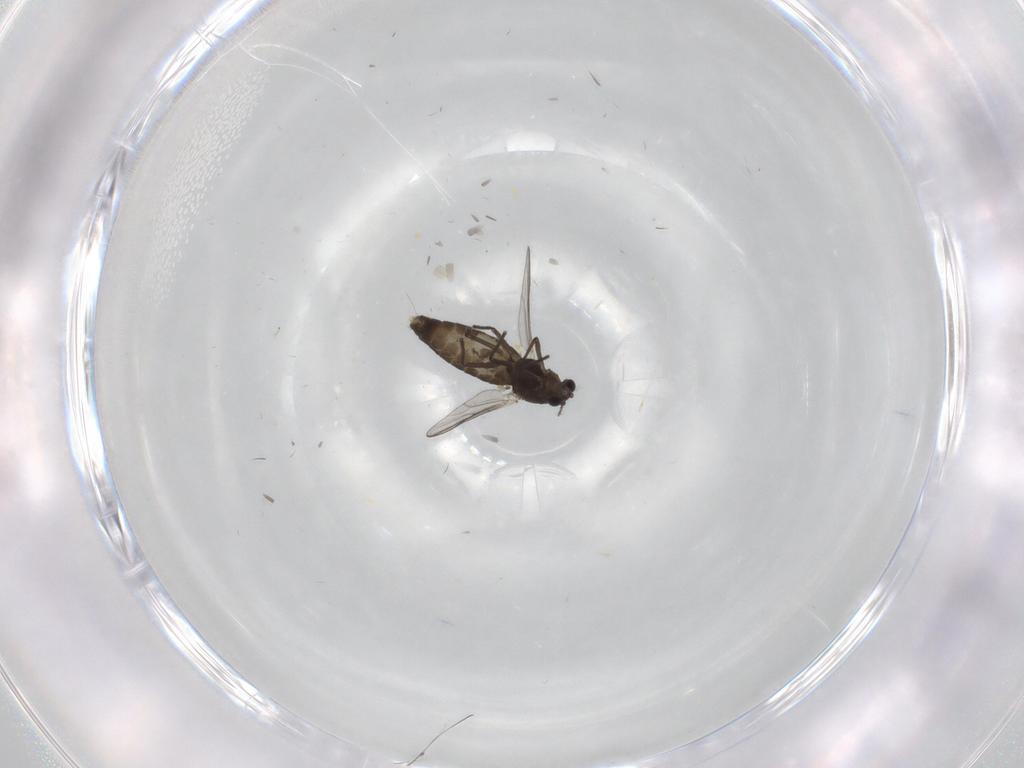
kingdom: Animalia
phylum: Arthropoda
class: Insecta
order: Diptera
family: Chironomidae
